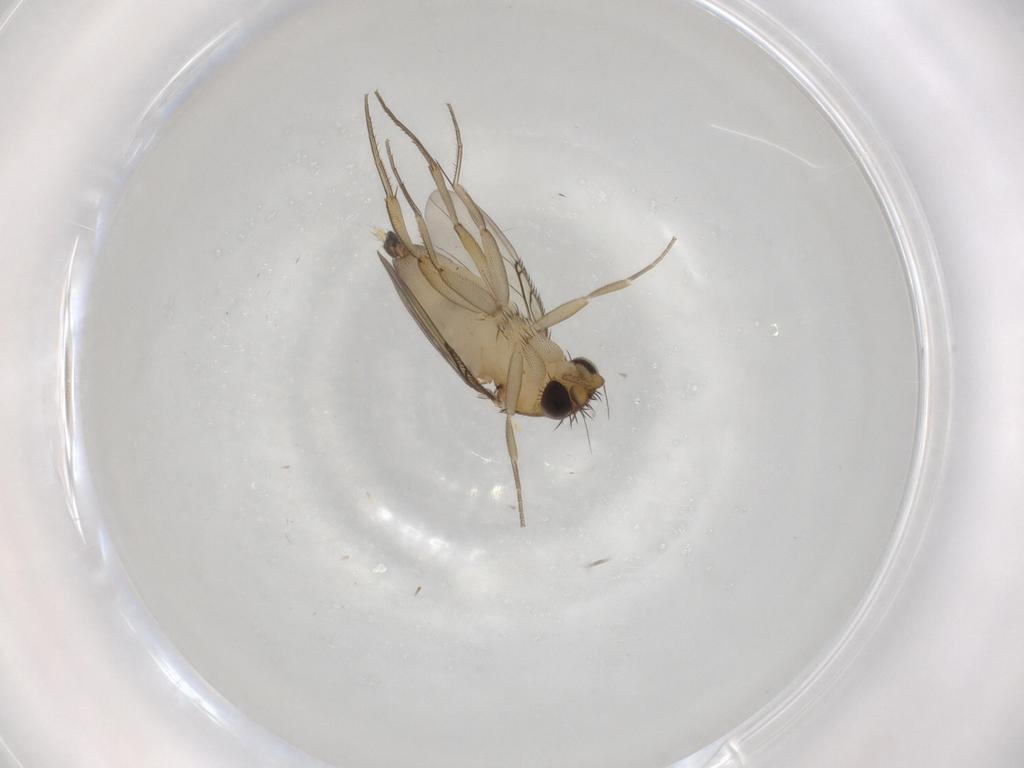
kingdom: Animalia
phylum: Arthropoda
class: Insecta
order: Diptera
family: Phoridae
